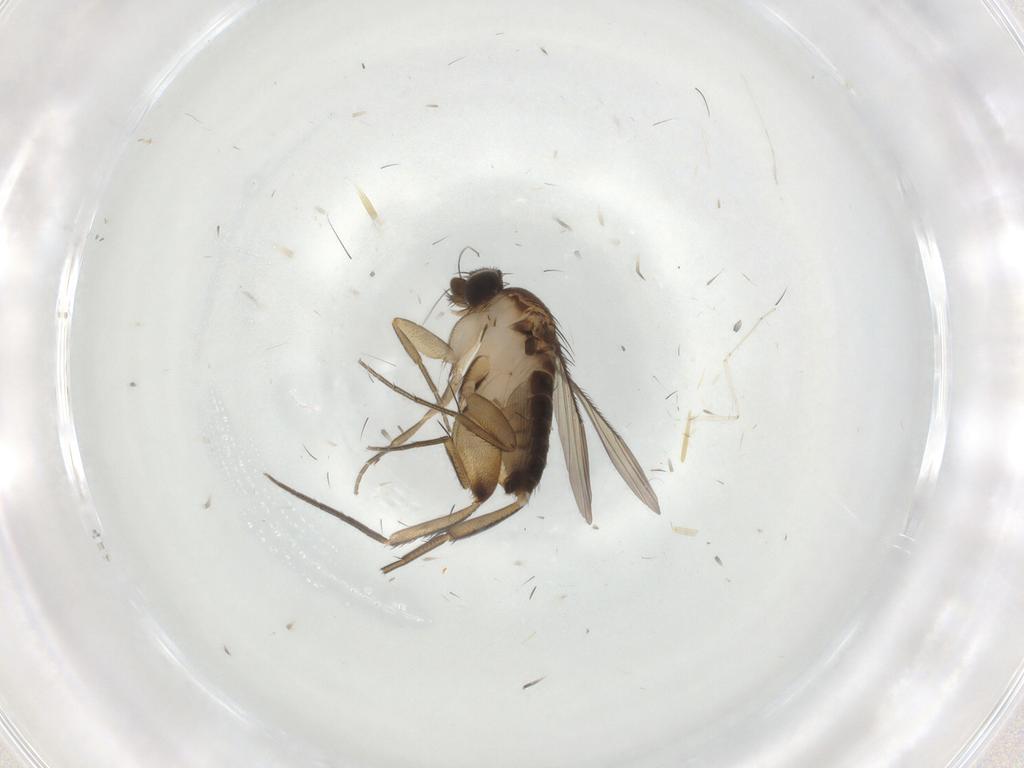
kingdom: Animalia
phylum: Arthropoda
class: Insecta
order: Diptera
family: Phoridae
